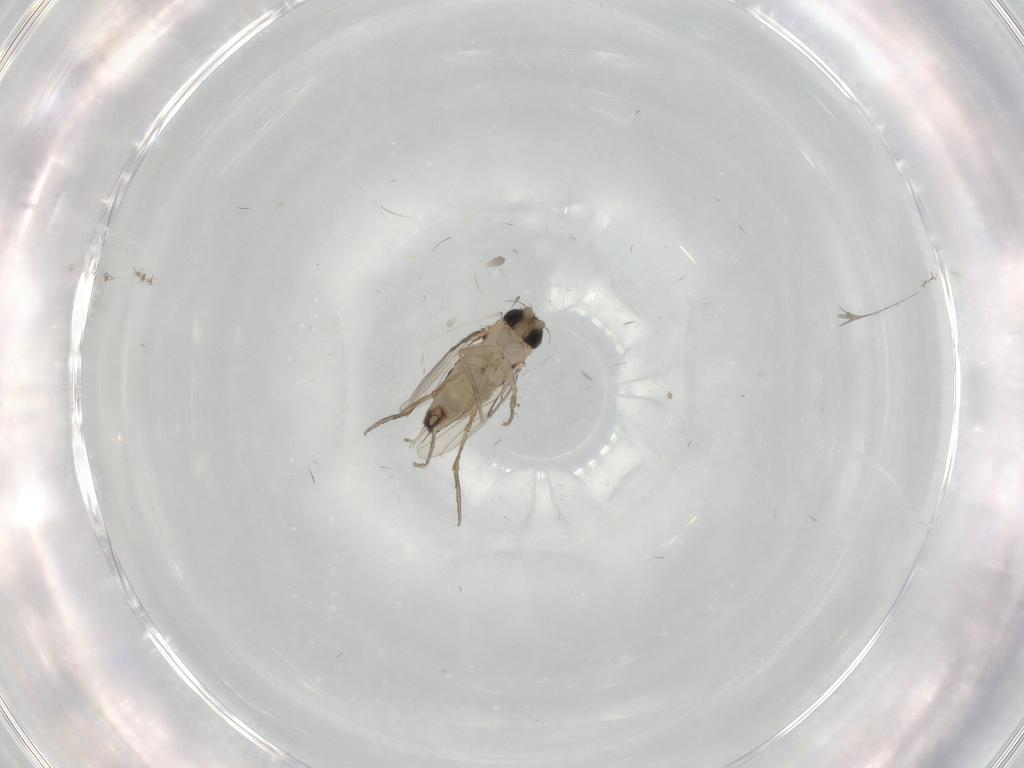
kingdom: Animalia
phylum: Arthropoda
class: Insecta
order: Diptera
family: Phoridae
